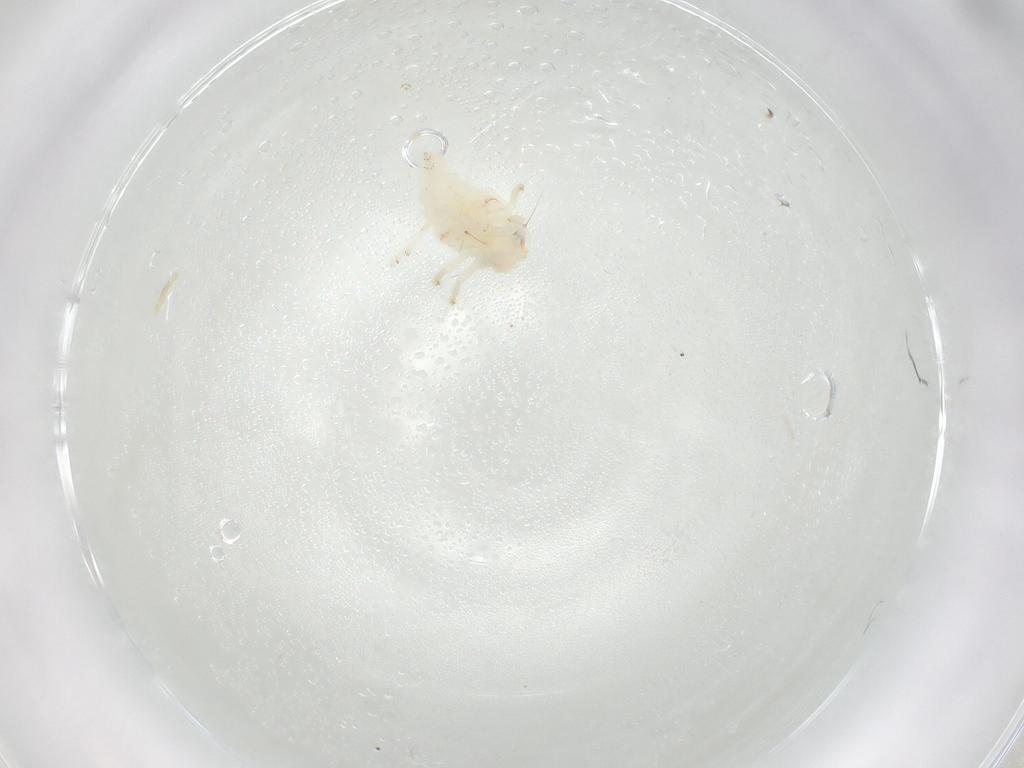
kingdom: Animalia
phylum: Arthropoda
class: Insecta
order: Hemiptera
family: Nogodinidae
